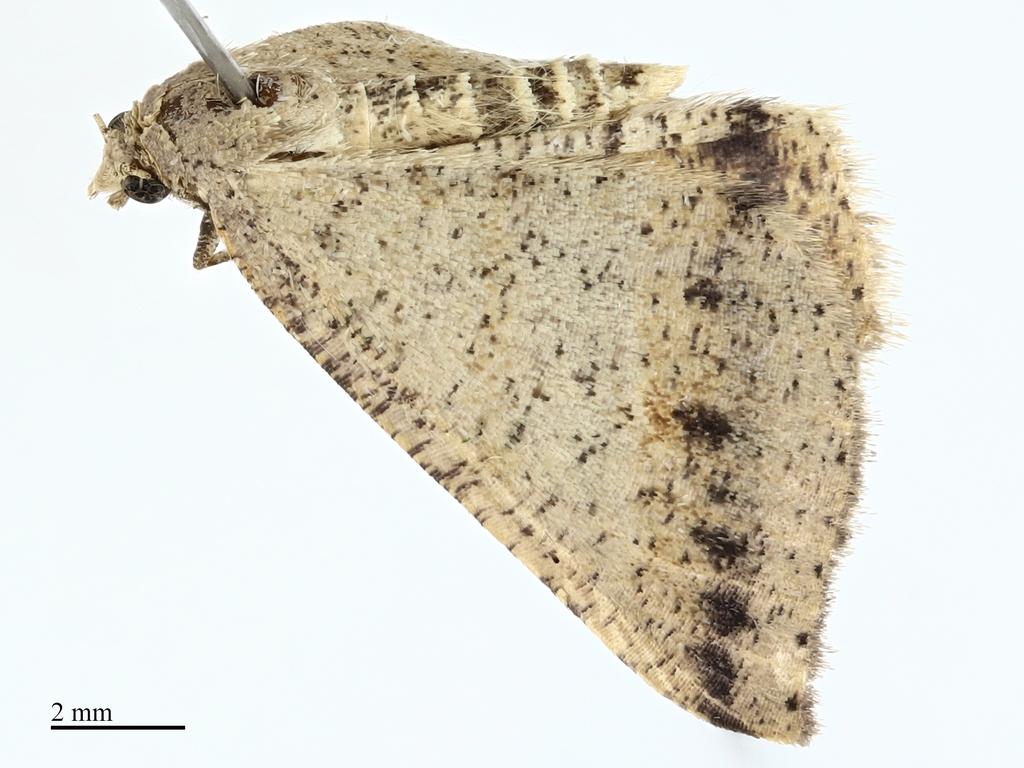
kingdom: Animalia
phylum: Arthropoda
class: Insecta
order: Lepidoptera
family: Geometridae
